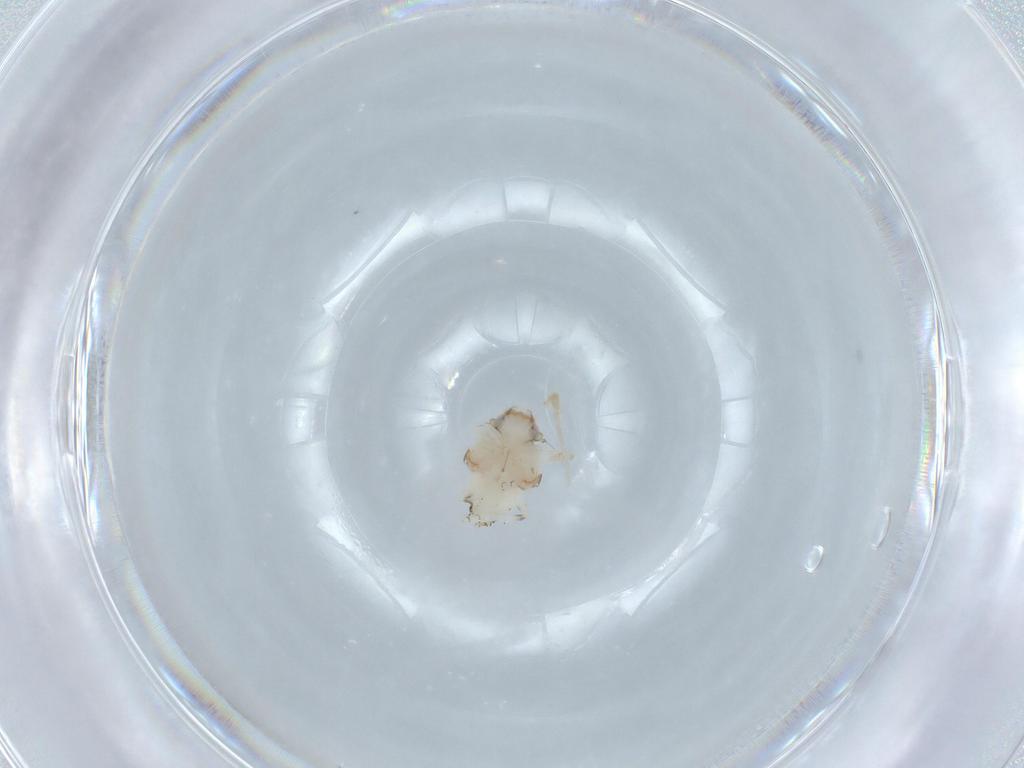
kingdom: Animalia
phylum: Arthropoda
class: Insecta
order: Hemiptera
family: Nogodinidae
